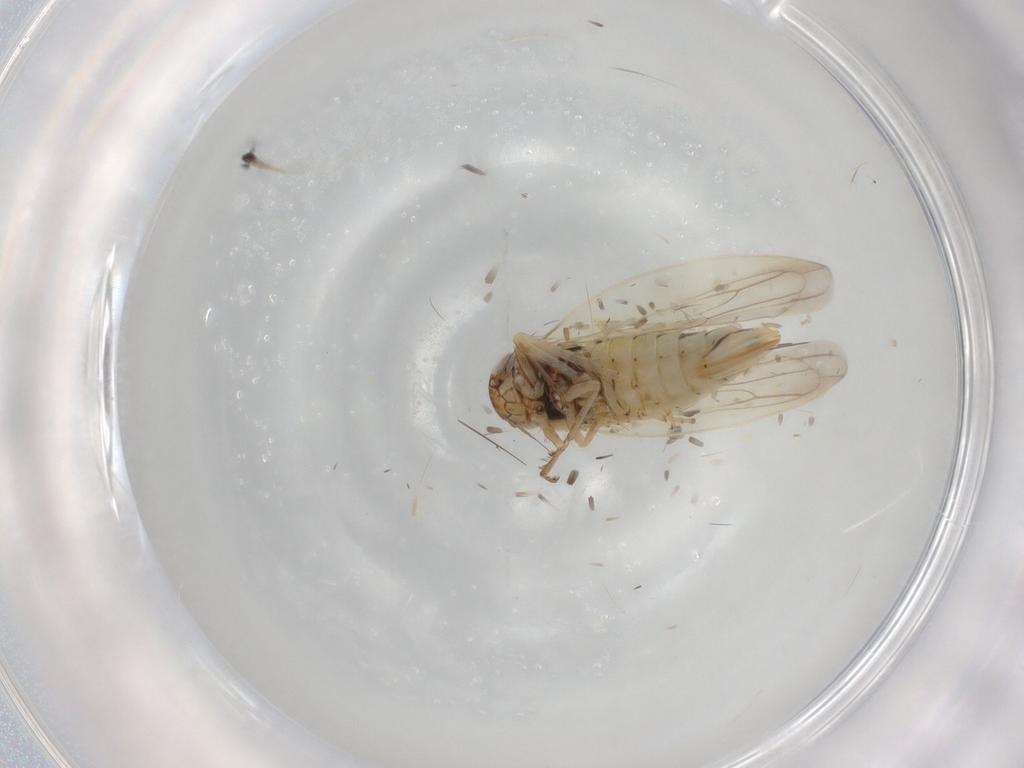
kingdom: Animalia
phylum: Arthropoda
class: Insecta
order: Hemiptera
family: Cicadellidae
